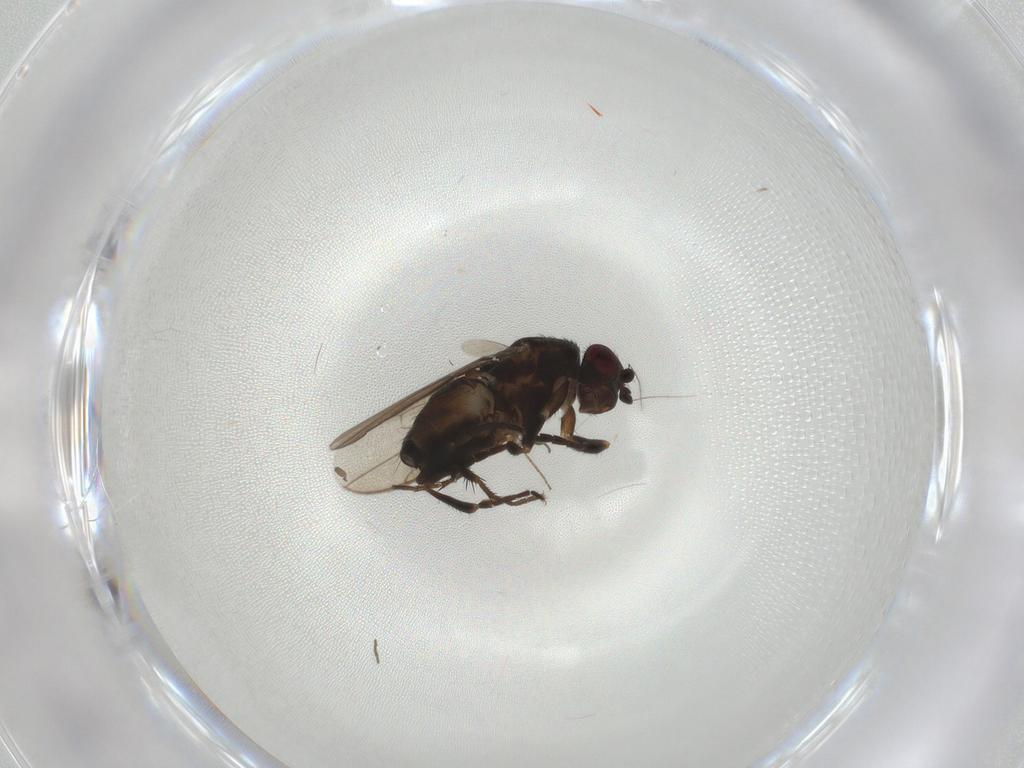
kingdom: Animalia
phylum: Arthropoda
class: Insecta
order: Diptera
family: Sphaeroceridae
